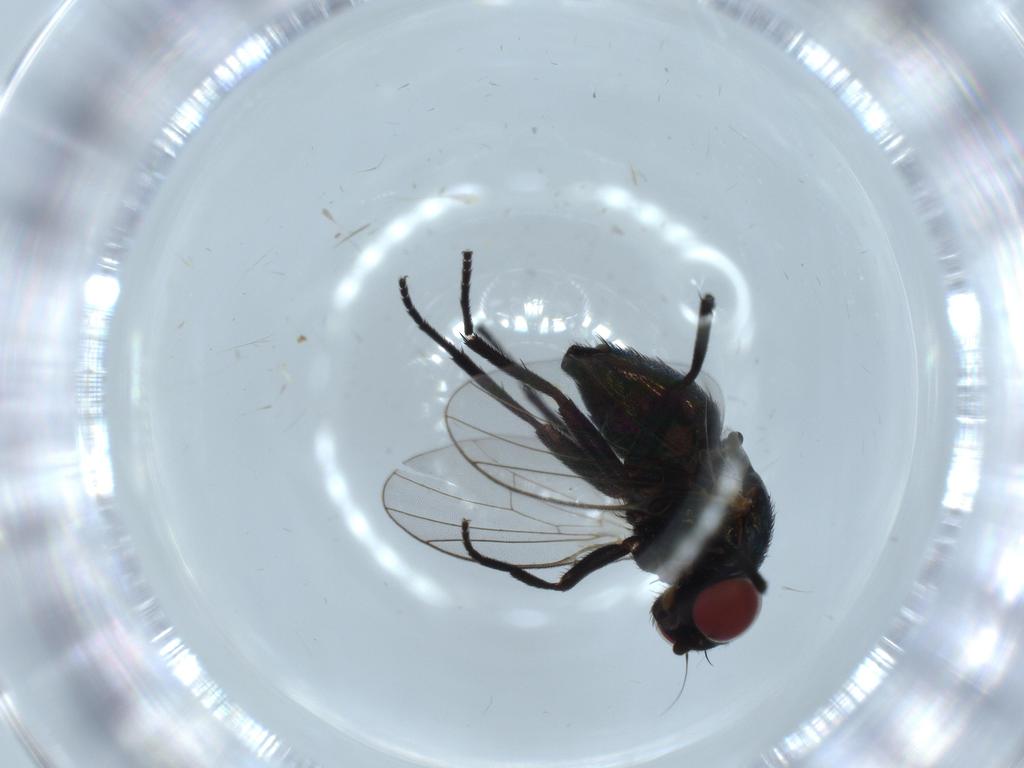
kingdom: Animalia
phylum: Arthropoda
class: Insecta
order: Diptera
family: Agromyzidae
